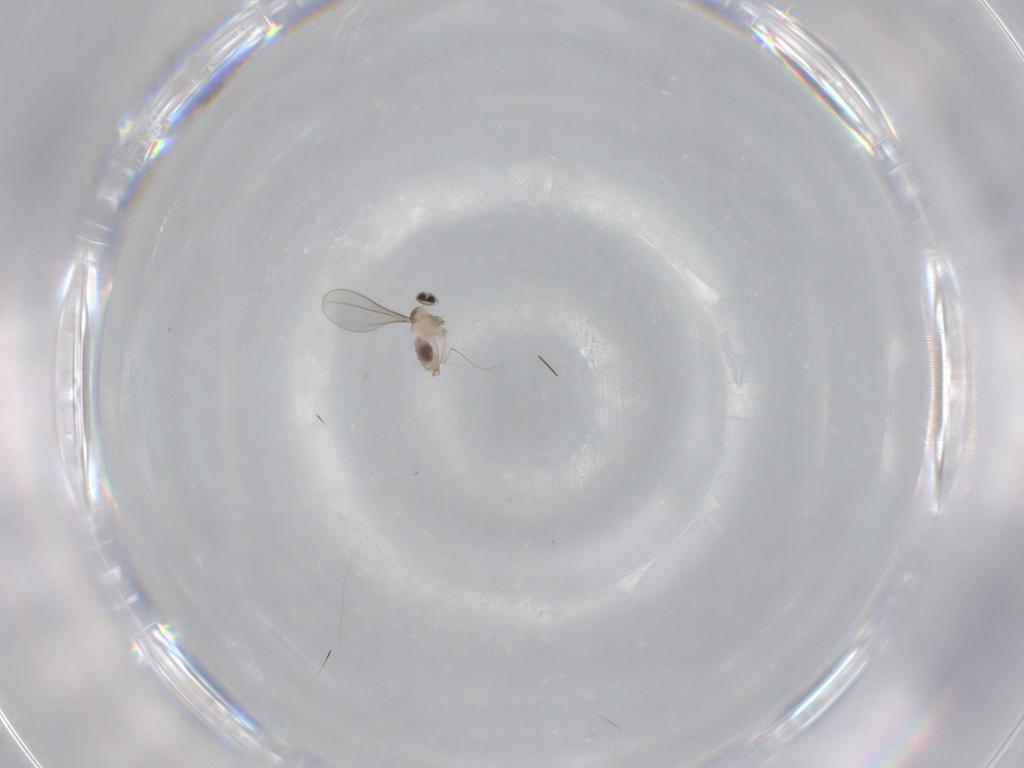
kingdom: Animalia
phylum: Arthropoda
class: Insecta
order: Diptera
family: Cecidomyiidae
